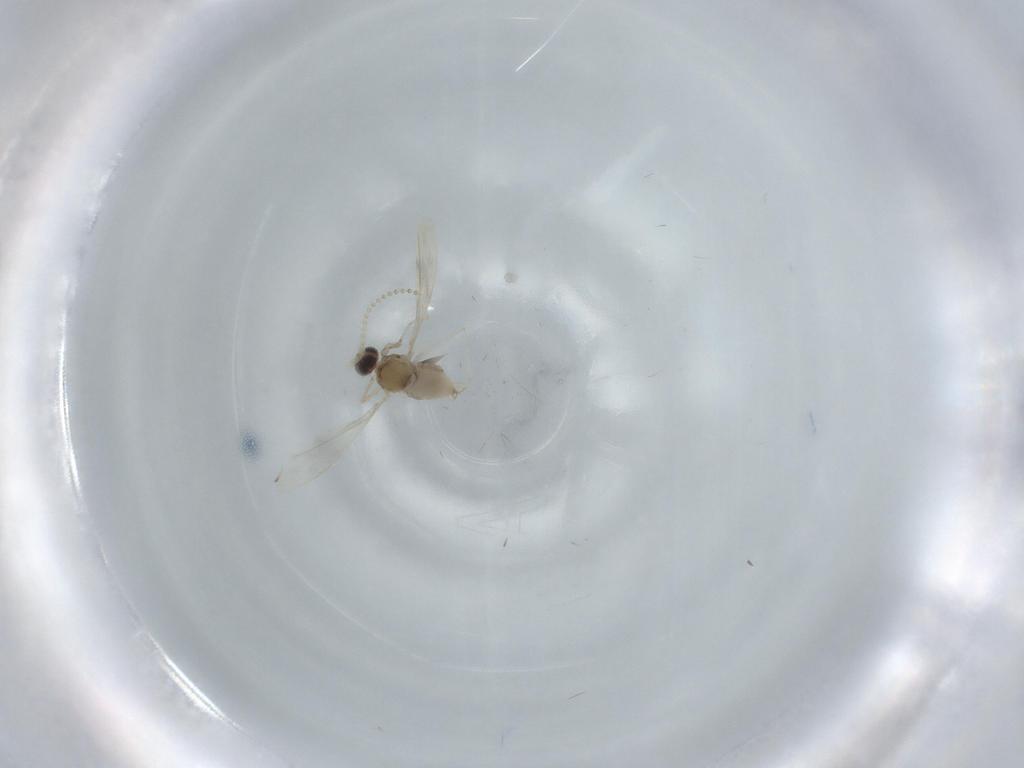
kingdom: Animalia
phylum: Arthropoda
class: Insecta
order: Diptera
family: Cecidomyiidae
